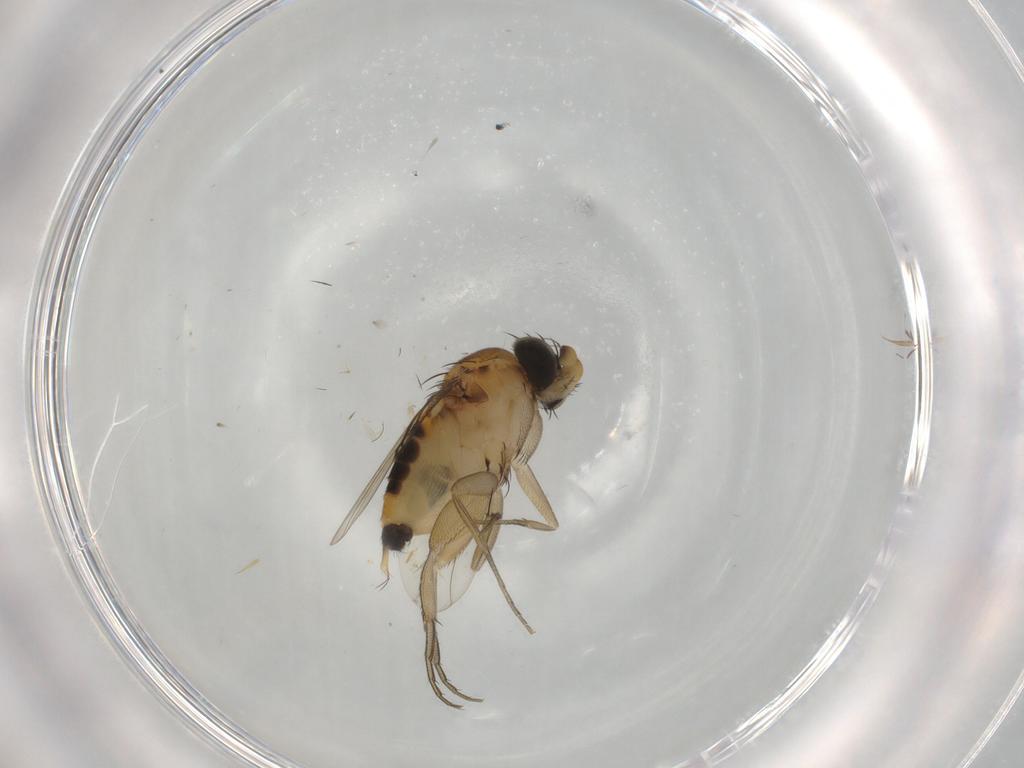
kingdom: Animalia
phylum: Arthropoda
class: Insecta
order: Diptera
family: Phoridae
